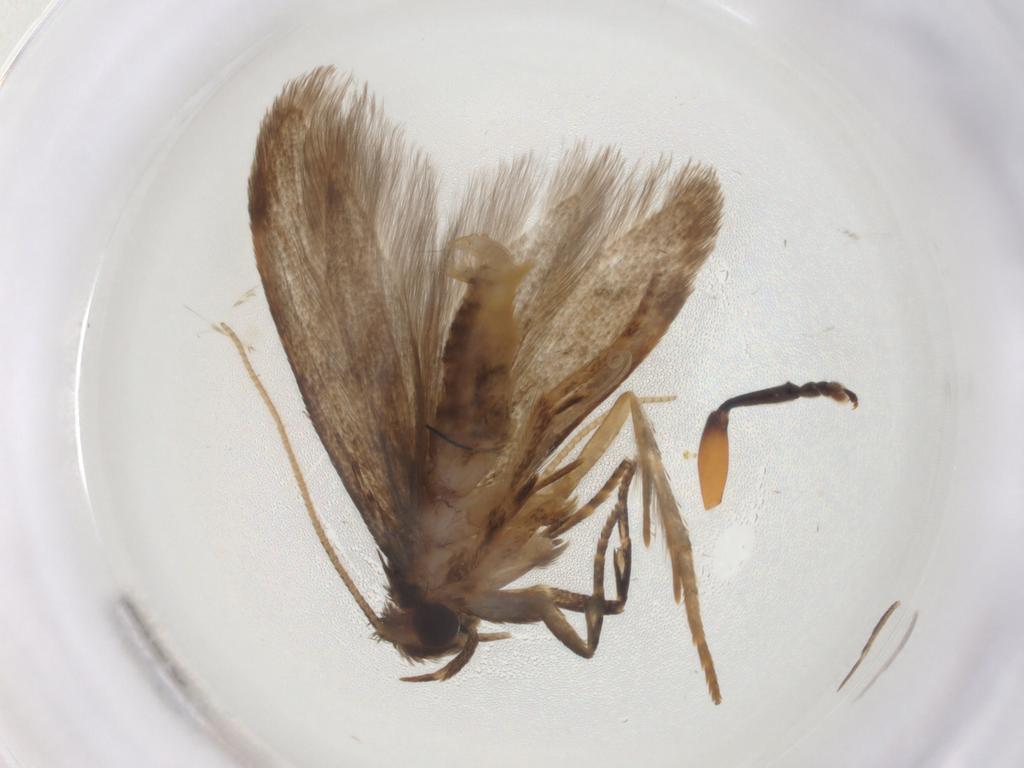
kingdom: Animalia
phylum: Arthropoda
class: Insecta
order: Lepidoptera
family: Blastobasidae
